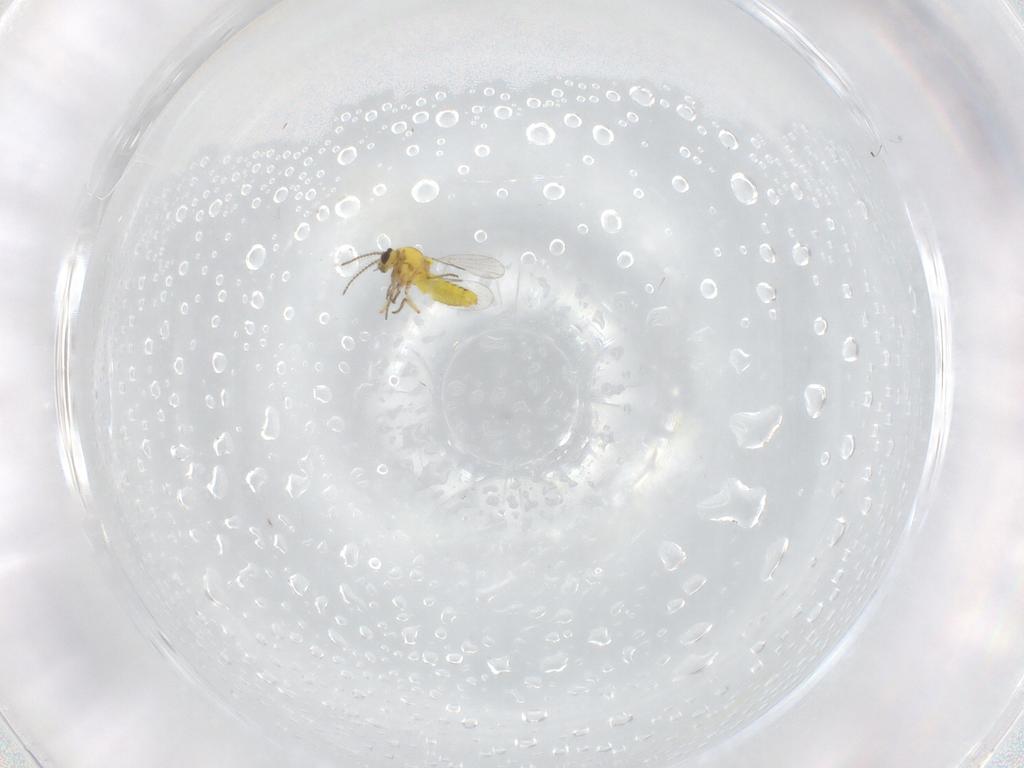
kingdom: Animalia
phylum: Arthropoda
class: Insecta
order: Diptera
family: Ceratopogonidae
